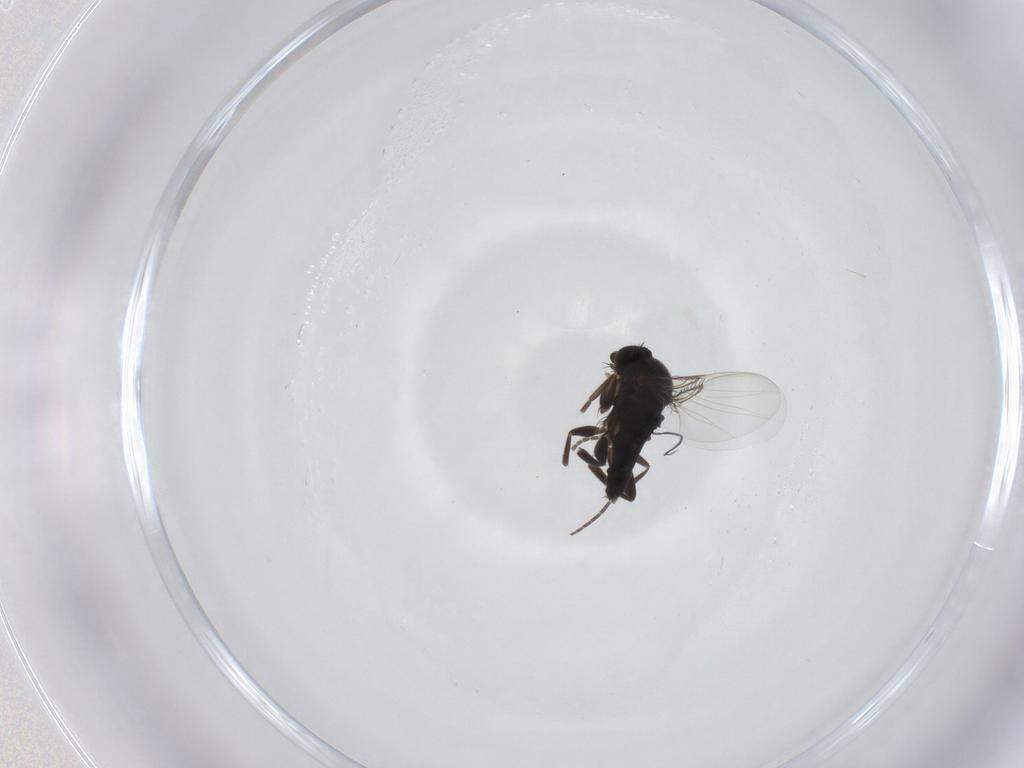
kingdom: Animalia
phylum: Arthropoda
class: Insecta
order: Diptera
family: Phoridae
